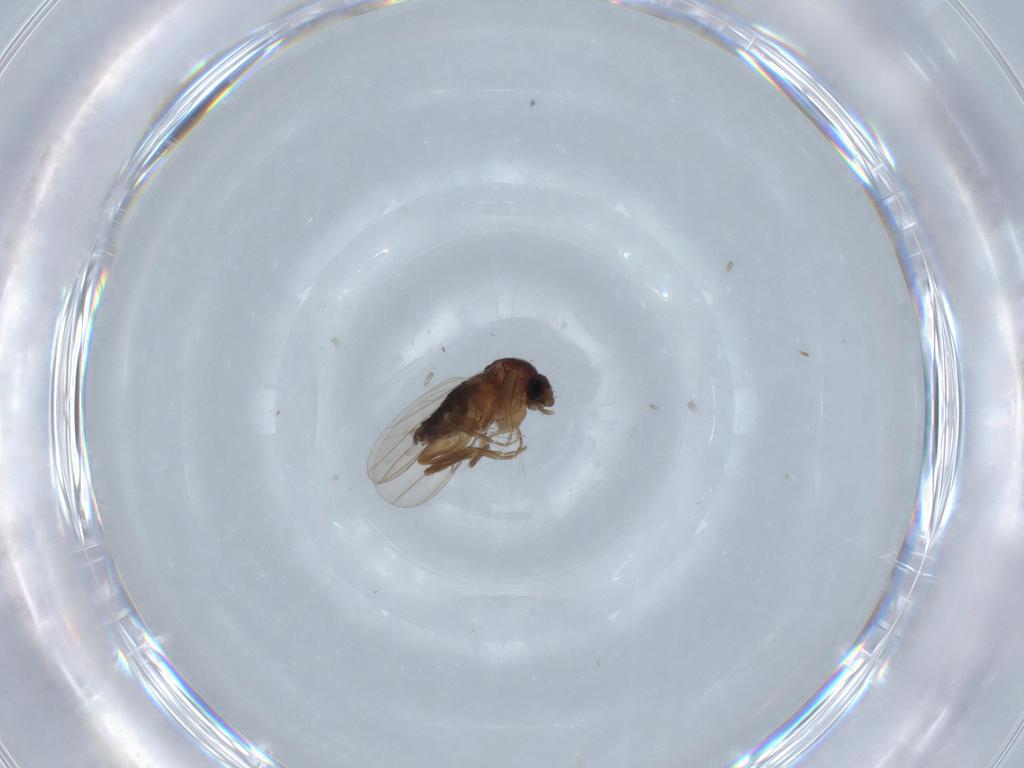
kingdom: Animalia
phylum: Arthropoda
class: Insecta
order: Diptera
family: Phoridae
